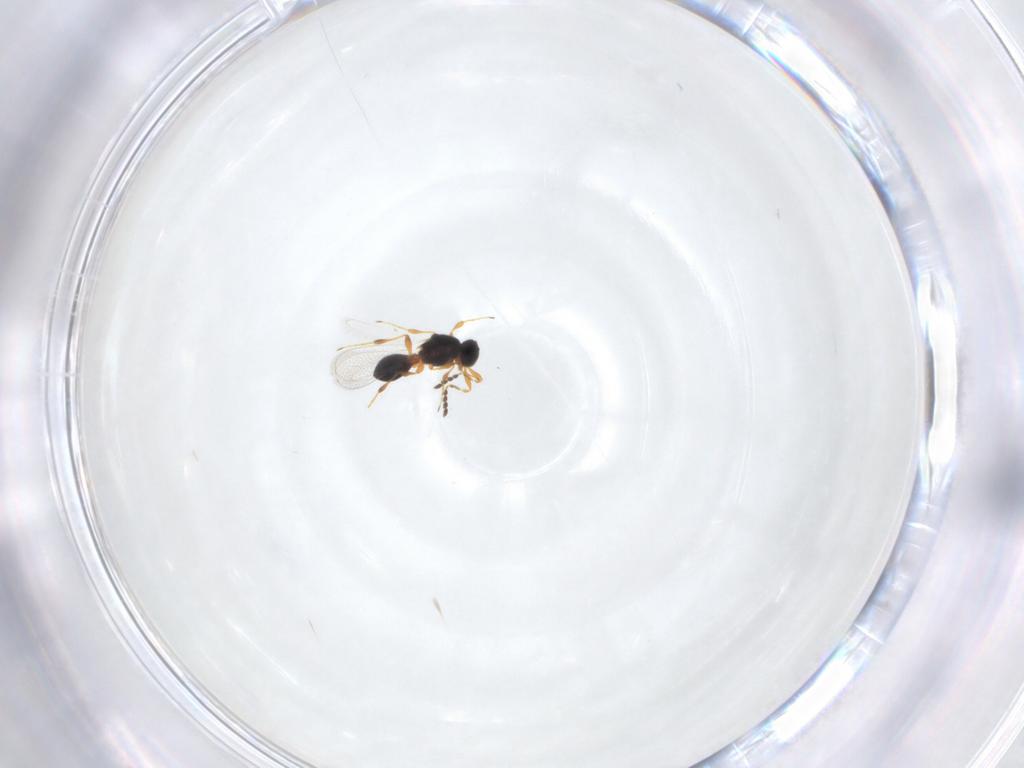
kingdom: Animalia
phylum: Arthropoda
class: Insecta
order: Hymenoptera
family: Platygastridae
